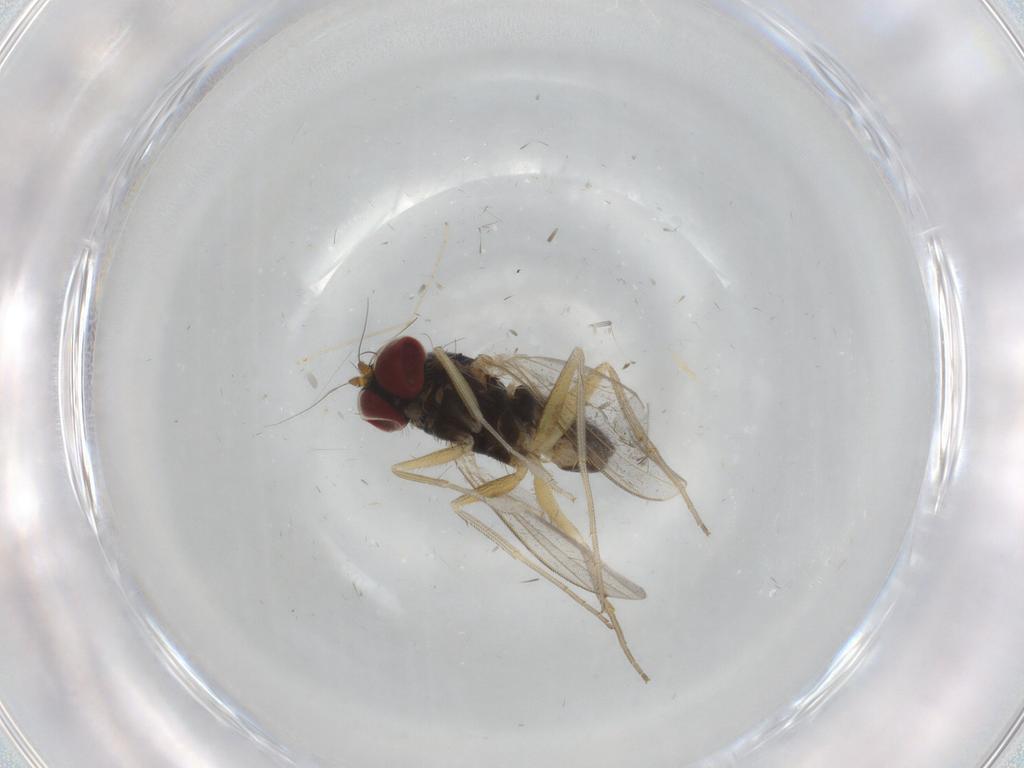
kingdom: Animalia
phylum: Arthropoda
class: Insecta
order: Diptera
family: Dolichopodidae
